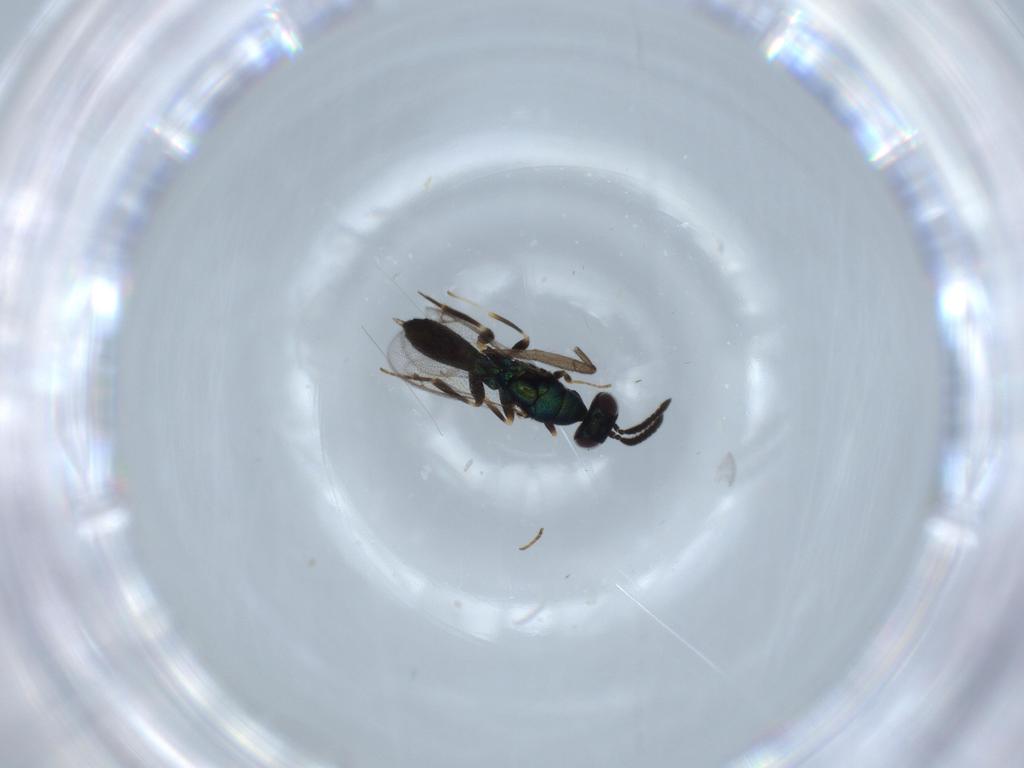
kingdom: Animalia
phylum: Arthropoda
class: Insecta
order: Hymenoptera
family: Cleonyminae
